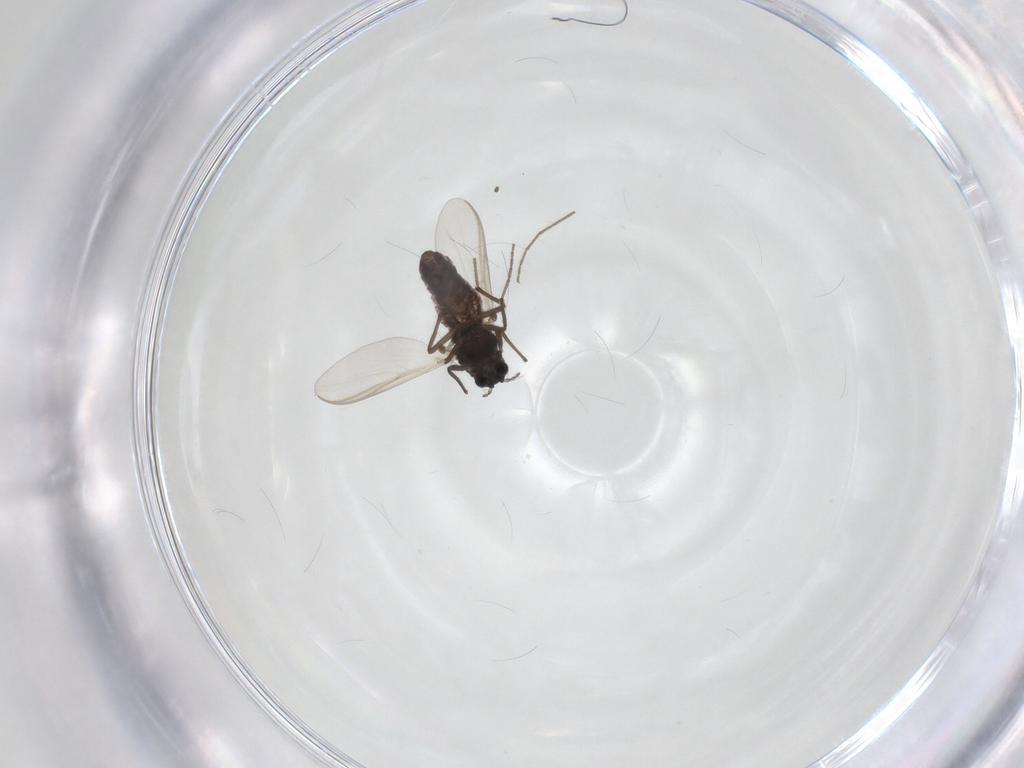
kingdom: Animalia
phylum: Arthropoda
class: Insecta
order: Diptera
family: Chironomidae
